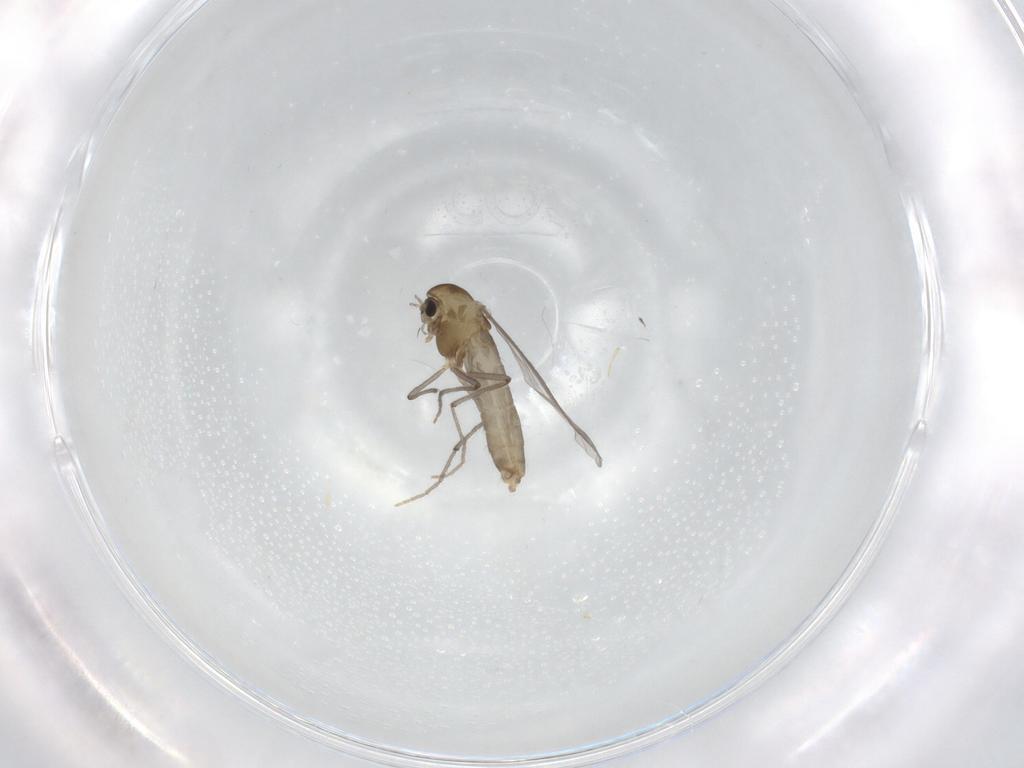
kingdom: Animalia
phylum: Arthropoda
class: Insecta
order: Diptera
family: Chironomidae
